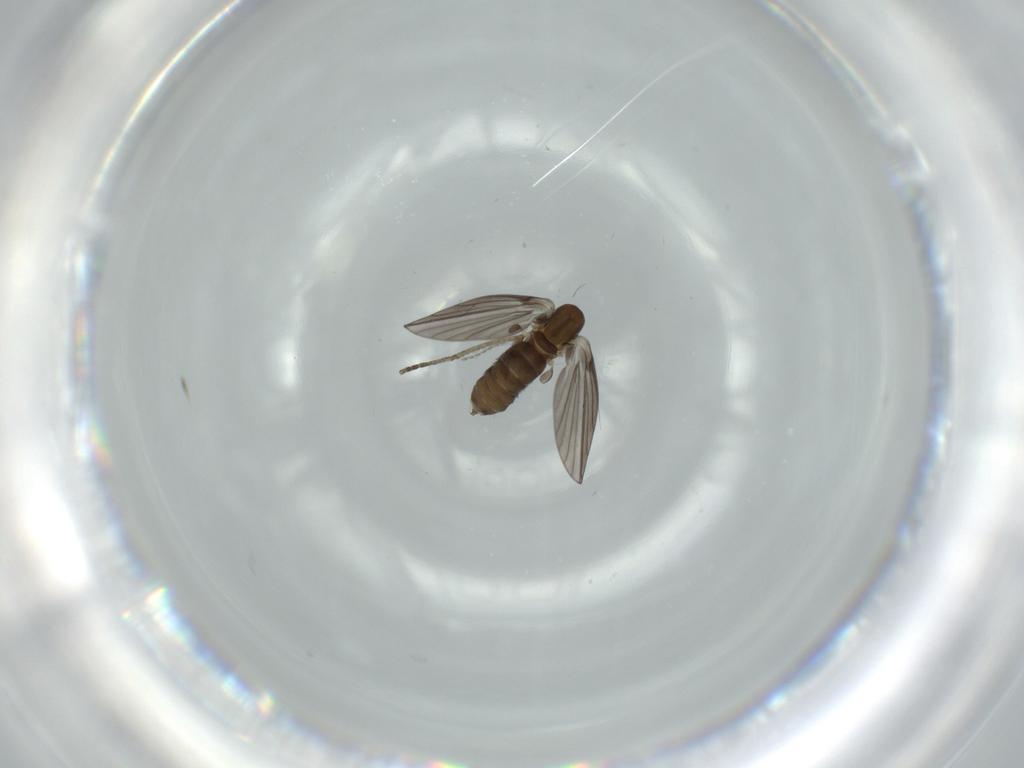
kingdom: Animalia
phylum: Arthropoda
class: Insecta
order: Diptera
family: Psychodidae
